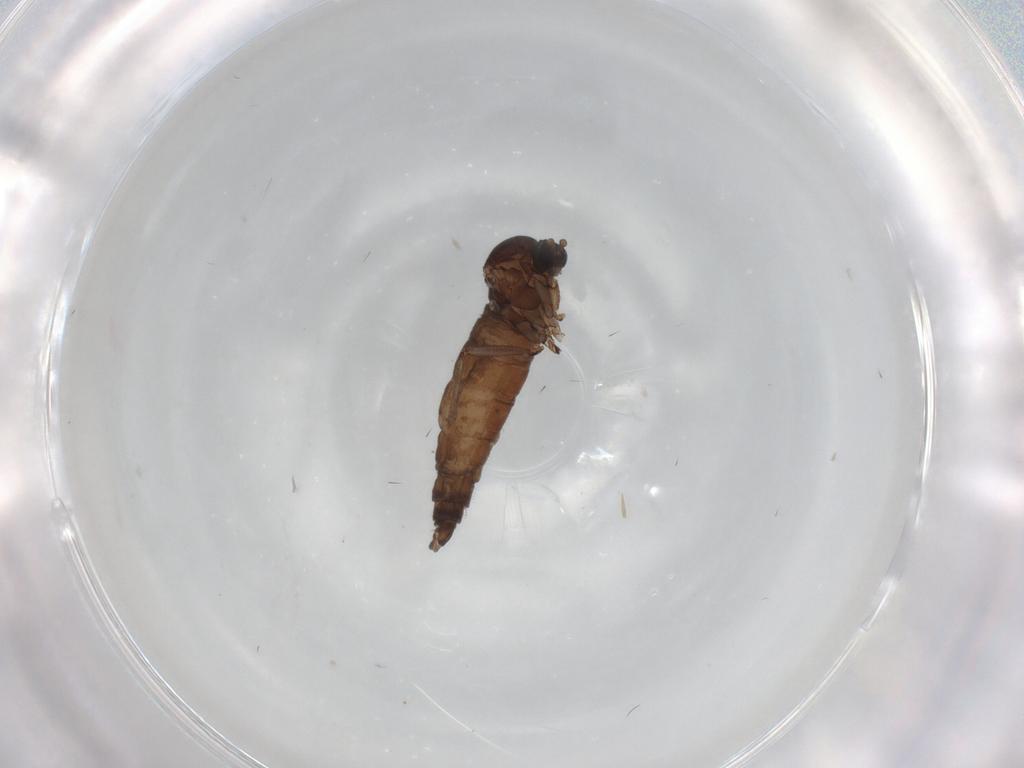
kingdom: Animalia
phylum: Arthropoda
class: Insecta
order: Diptera
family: Sciaridae
